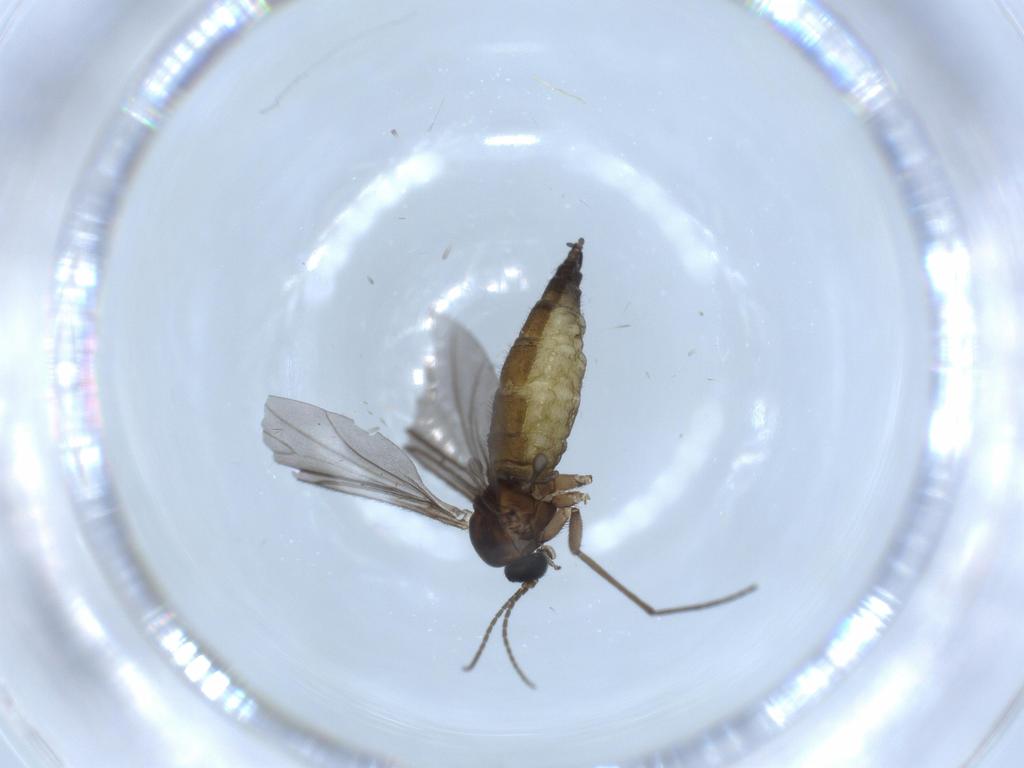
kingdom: Animalia
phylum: Arthropoda
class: Insecta
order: Diptera
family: Sciaridae
